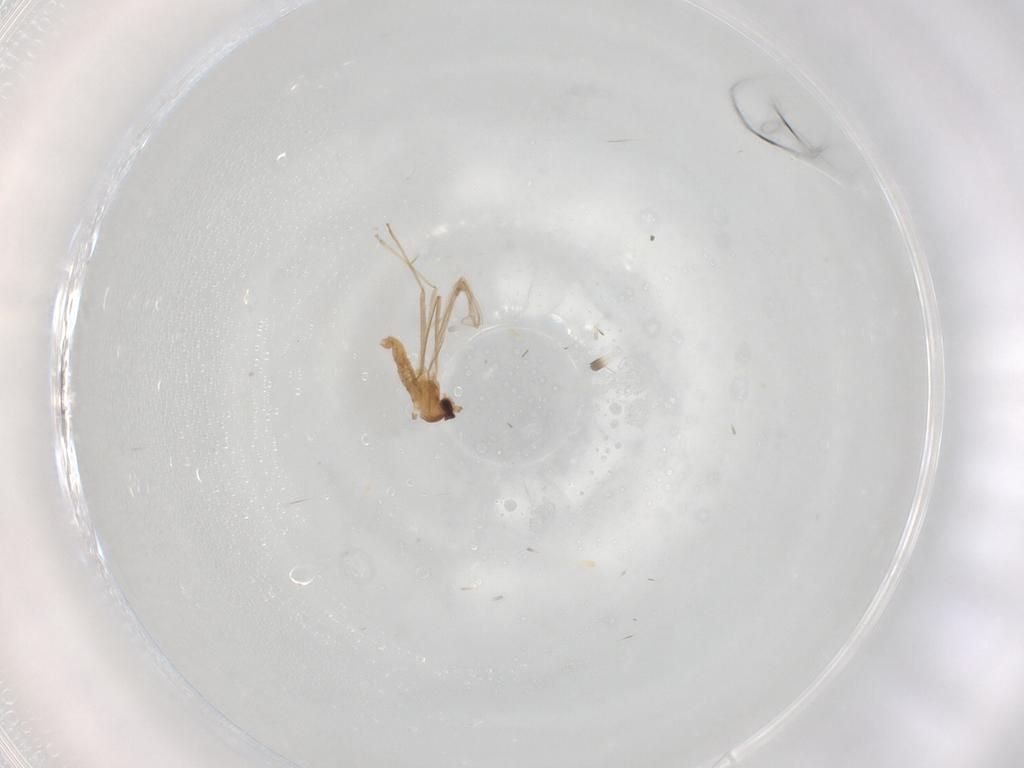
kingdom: Animalia
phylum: Arthropoda
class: Insecta
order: Diptera
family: Cecidomyiidae
